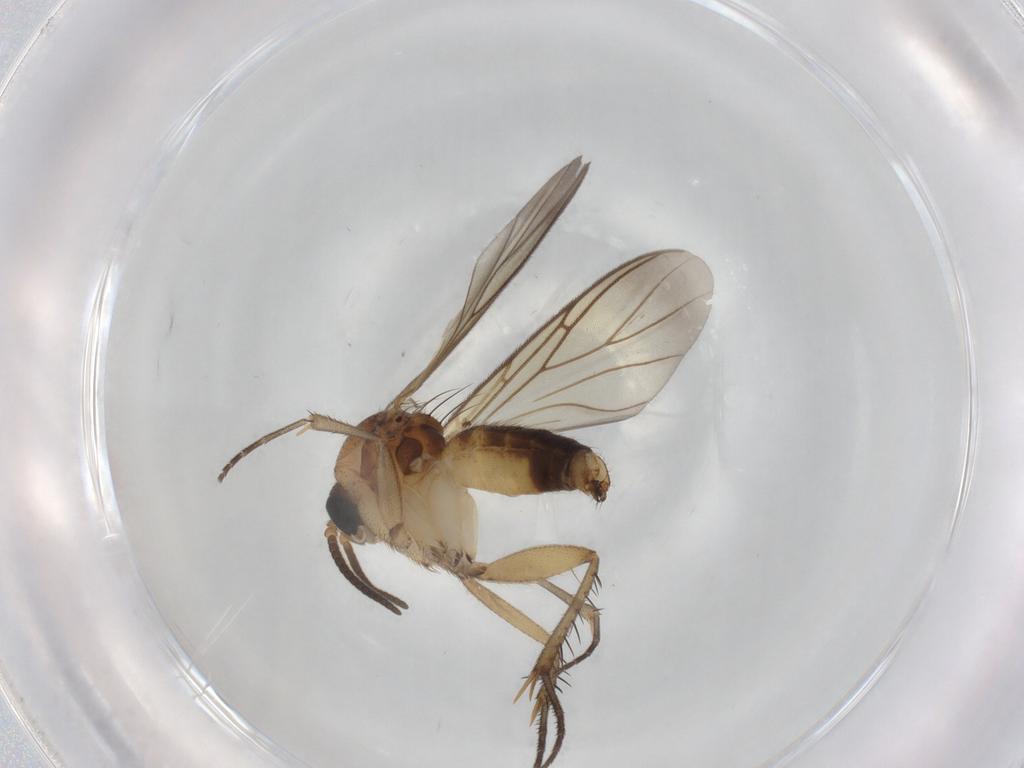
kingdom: Animalia
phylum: Arthropoda
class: Insecta
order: Diptera
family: Mycetophilidae
